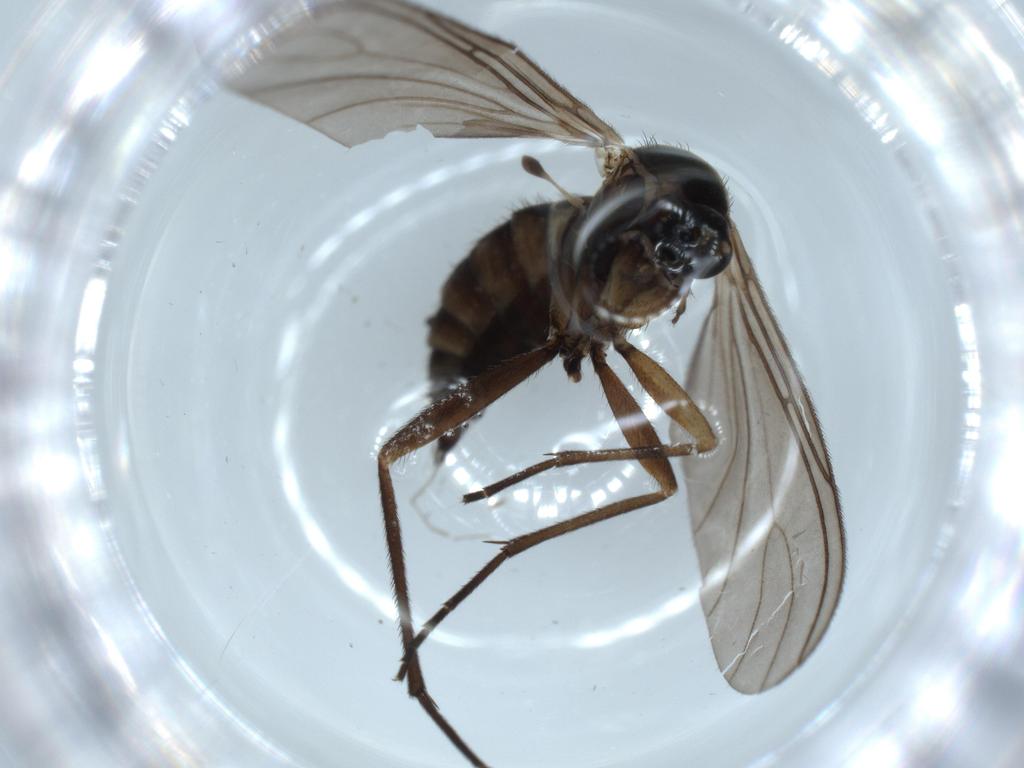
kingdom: Animalia
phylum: Arthropoda
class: Insecta
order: Diptera
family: Sciaridae
